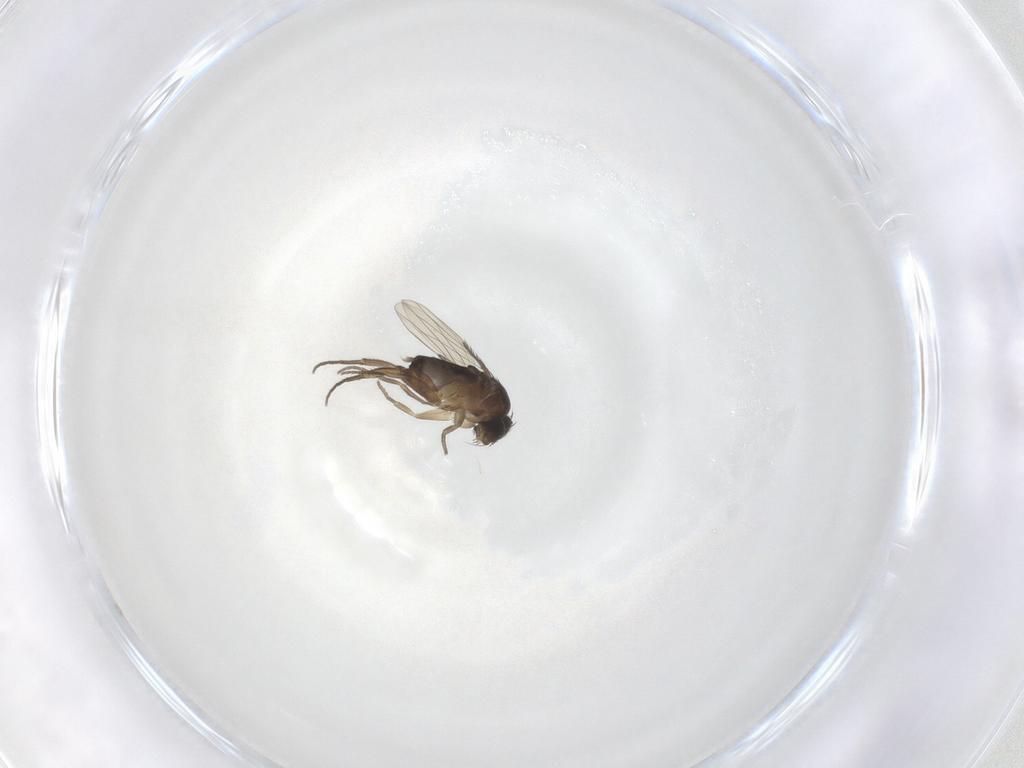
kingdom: Animalia
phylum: Arthropoda
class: Insecta
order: Diptera
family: Phoridae
